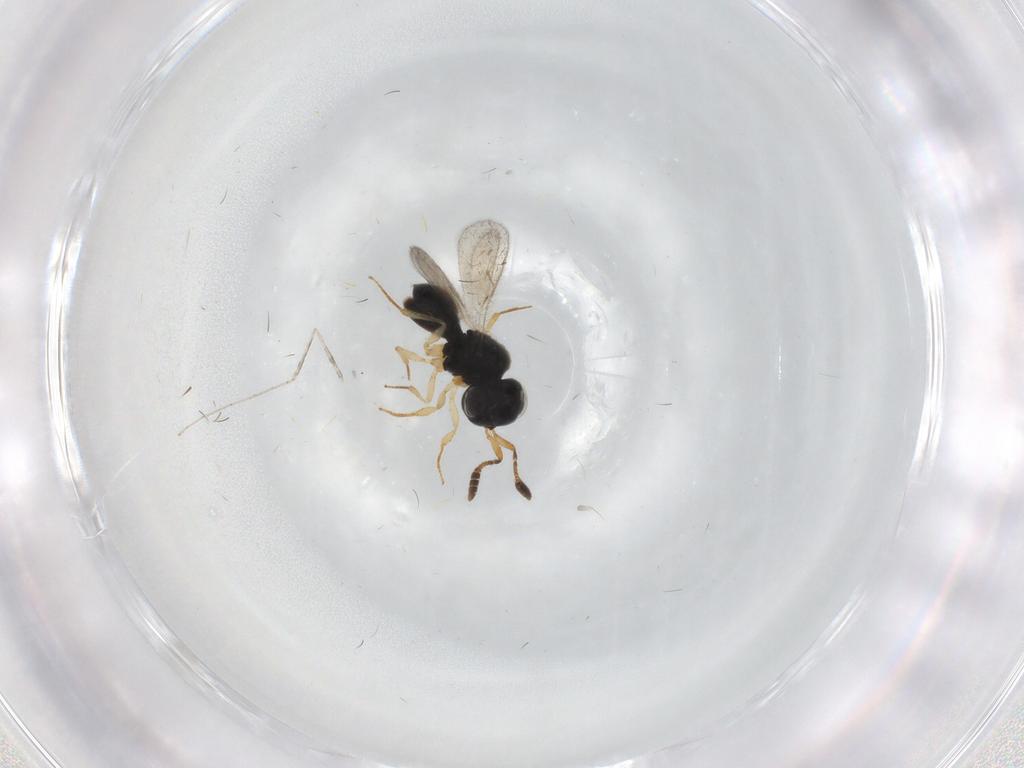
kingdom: Animalia
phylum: Arthropoda
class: Insecta
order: Hymenoptera
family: Scelionidae
